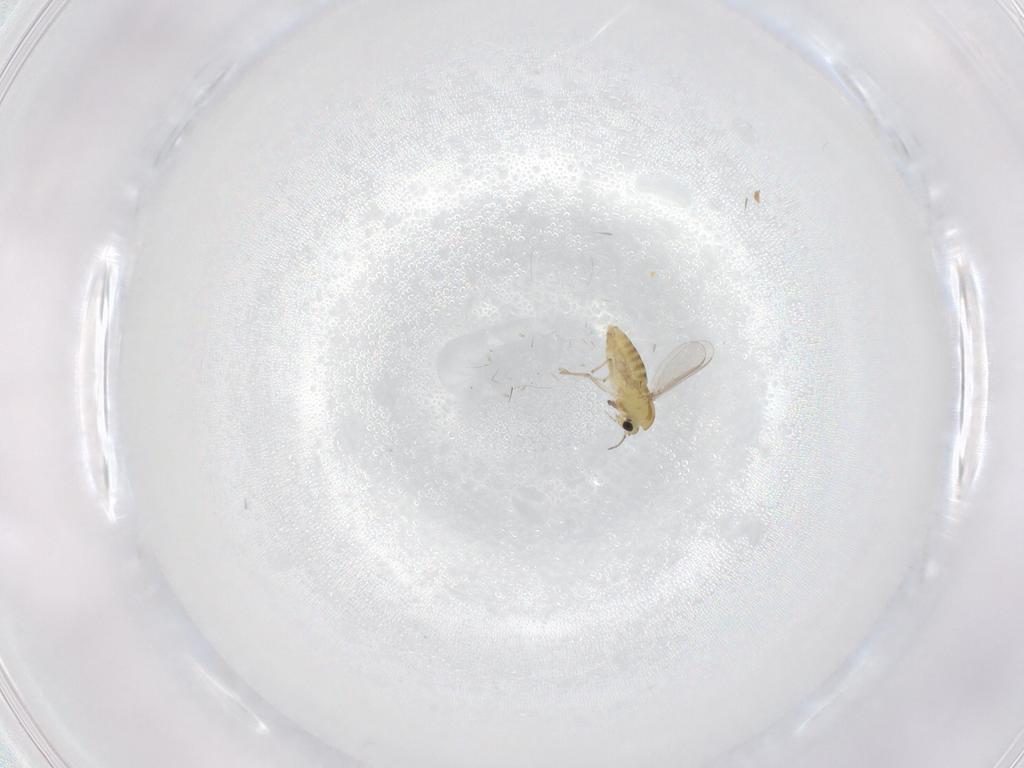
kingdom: Animalia
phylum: Arthropoda
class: Insecta
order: Diptera
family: Chironomidae
